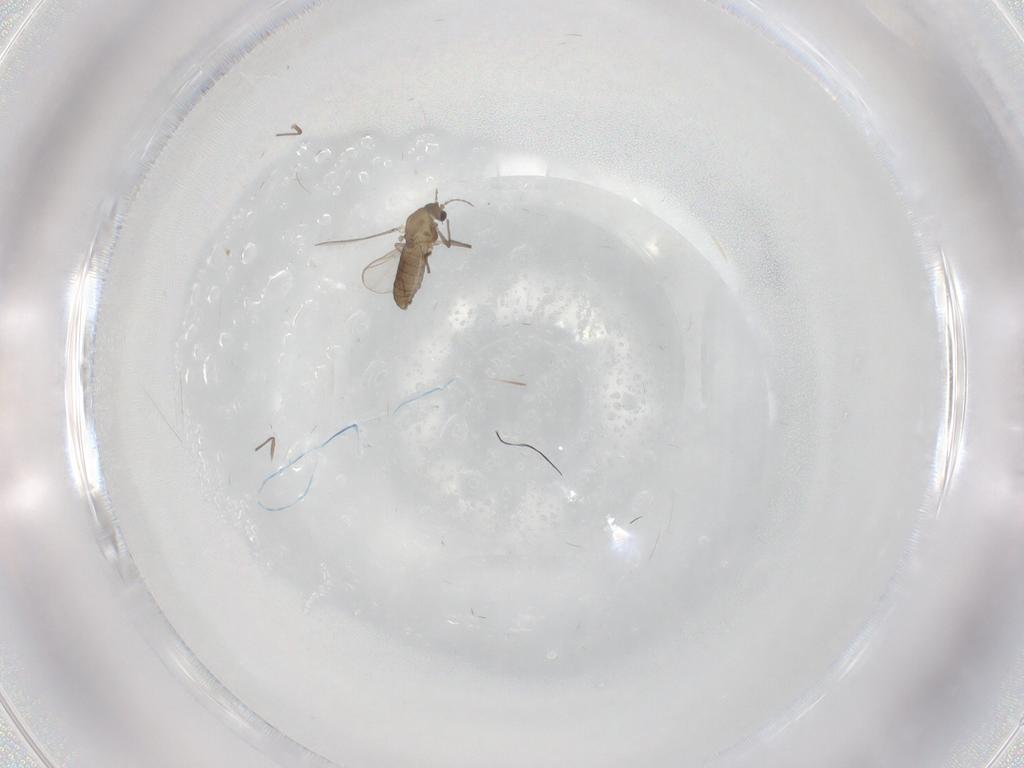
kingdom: Animalia
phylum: Arthropoda
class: Insecta
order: Diptera
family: Chironomidae
